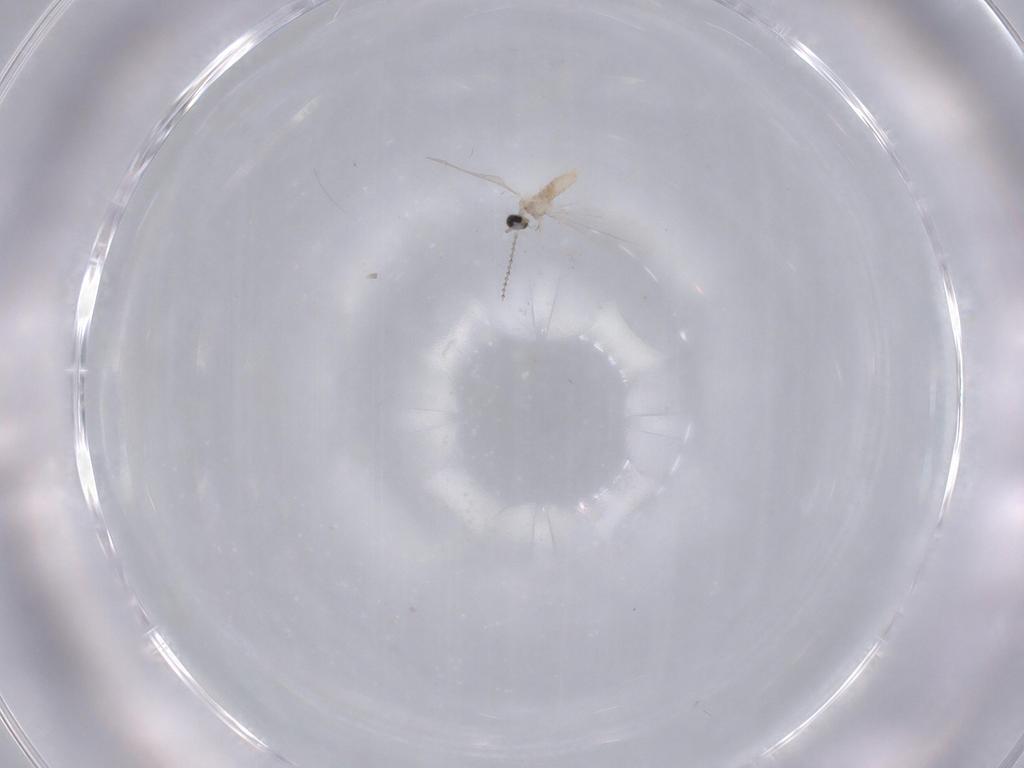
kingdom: Animalia
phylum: Arthropoda
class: Insecta
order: Diptera
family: Cecidomyiidae
